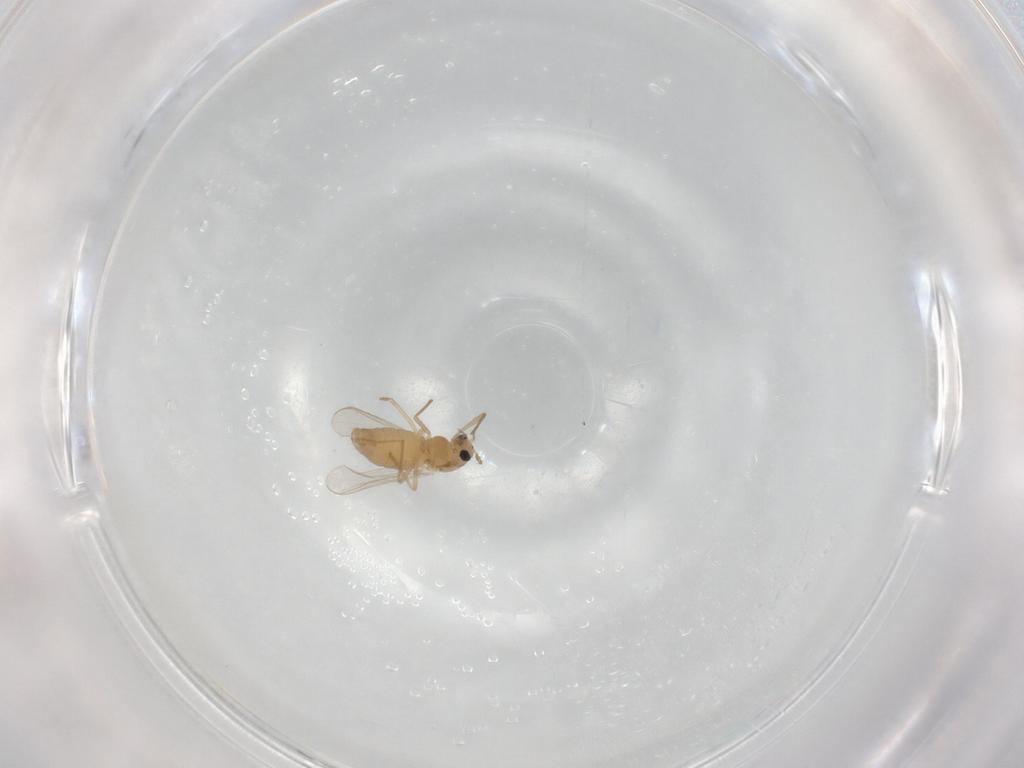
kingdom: Animalia
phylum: Arthropoda
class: Insecta
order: Diptera
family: Chironomidae
